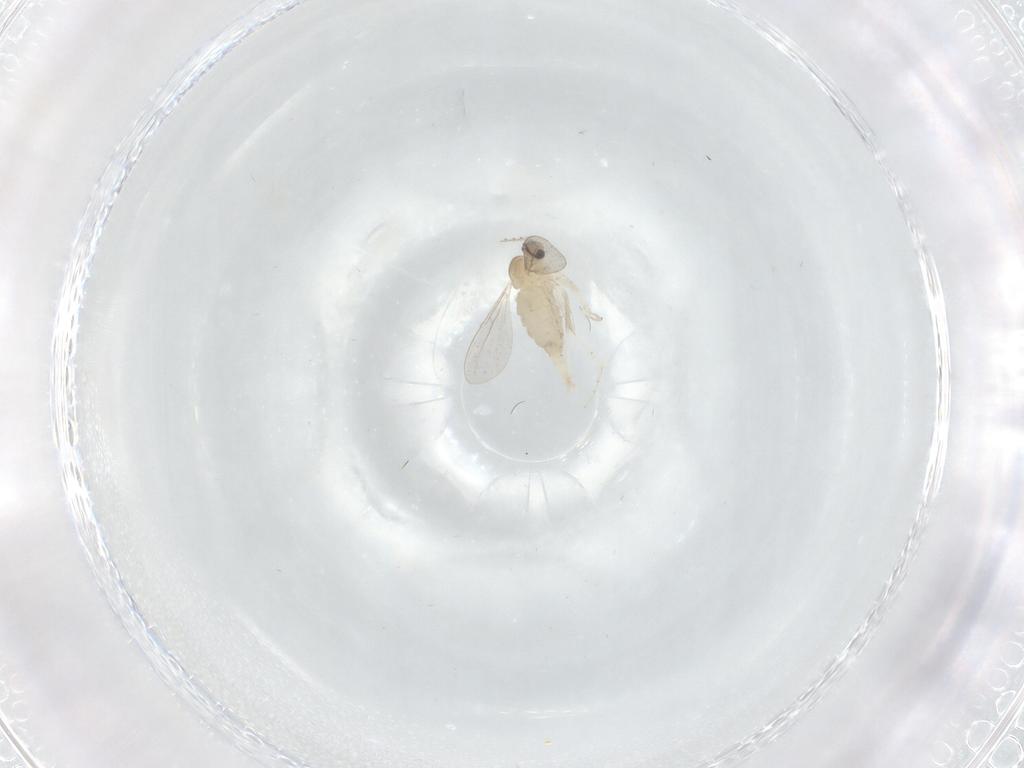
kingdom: Animalia
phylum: Arthropoda
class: Insecta
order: Diptera
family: Cecidomyiidae
